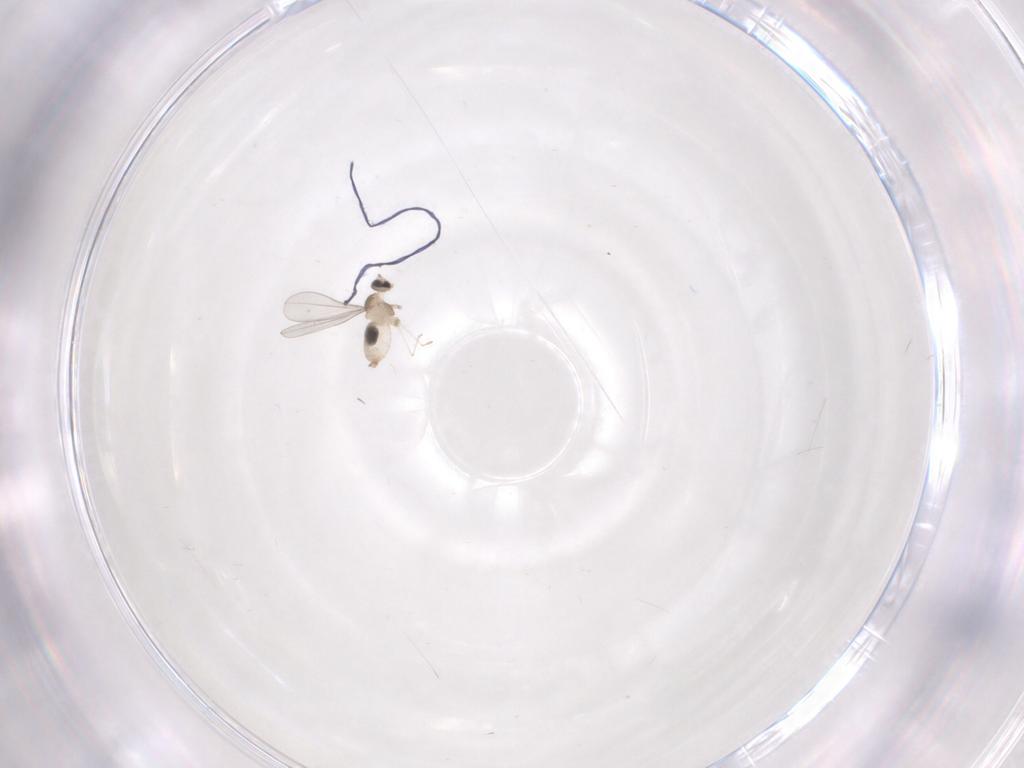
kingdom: Animalia
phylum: Arthropoda
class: Insecta
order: Diptera
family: Cecidomyiidae
